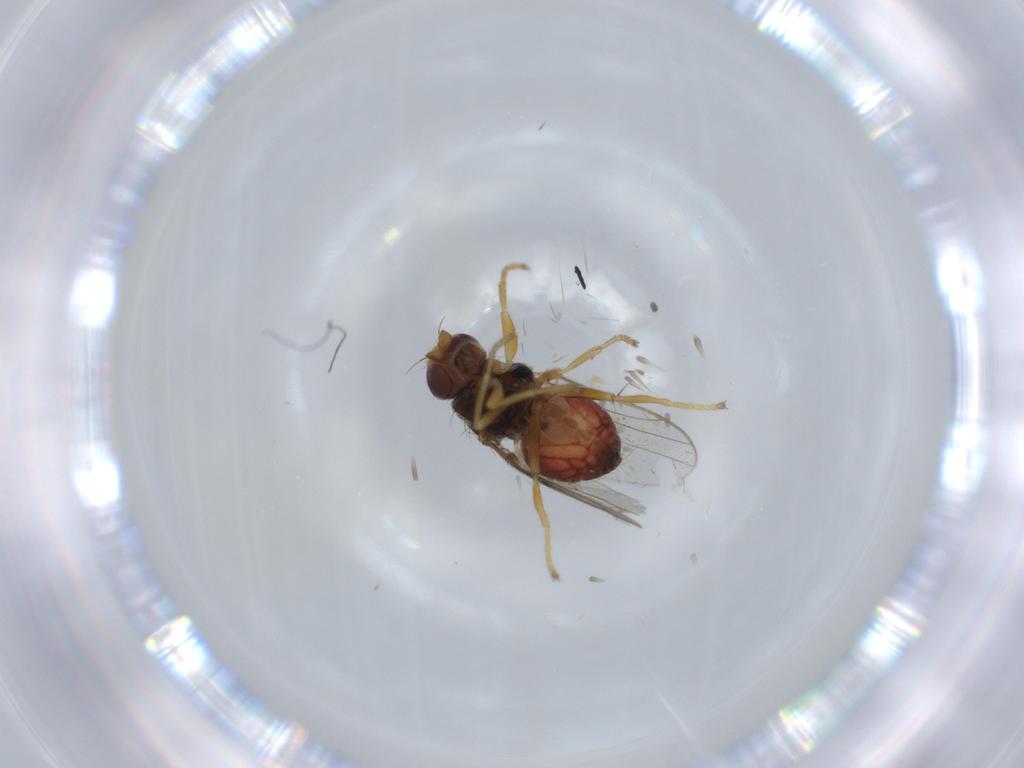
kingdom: Animalia
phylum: Arthropoda
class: Insecta
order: Diptera
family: Chloropidae
